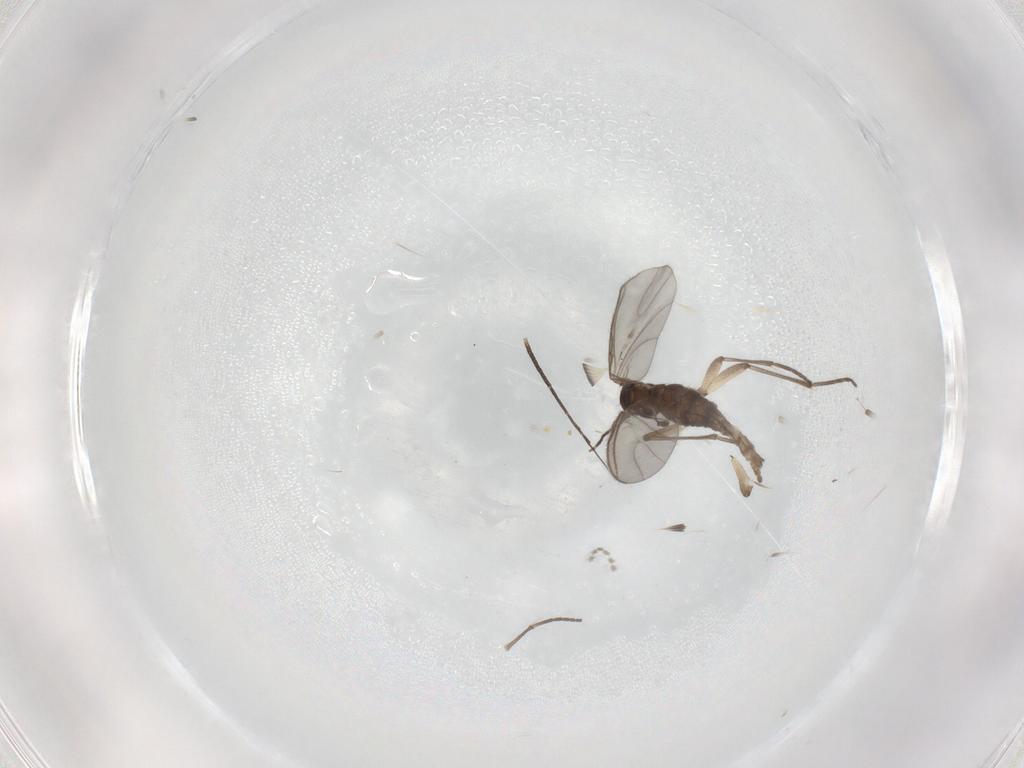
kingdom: Animalia
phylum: Arthropoda
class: Insecta
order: Diptera
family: Sciaridae
